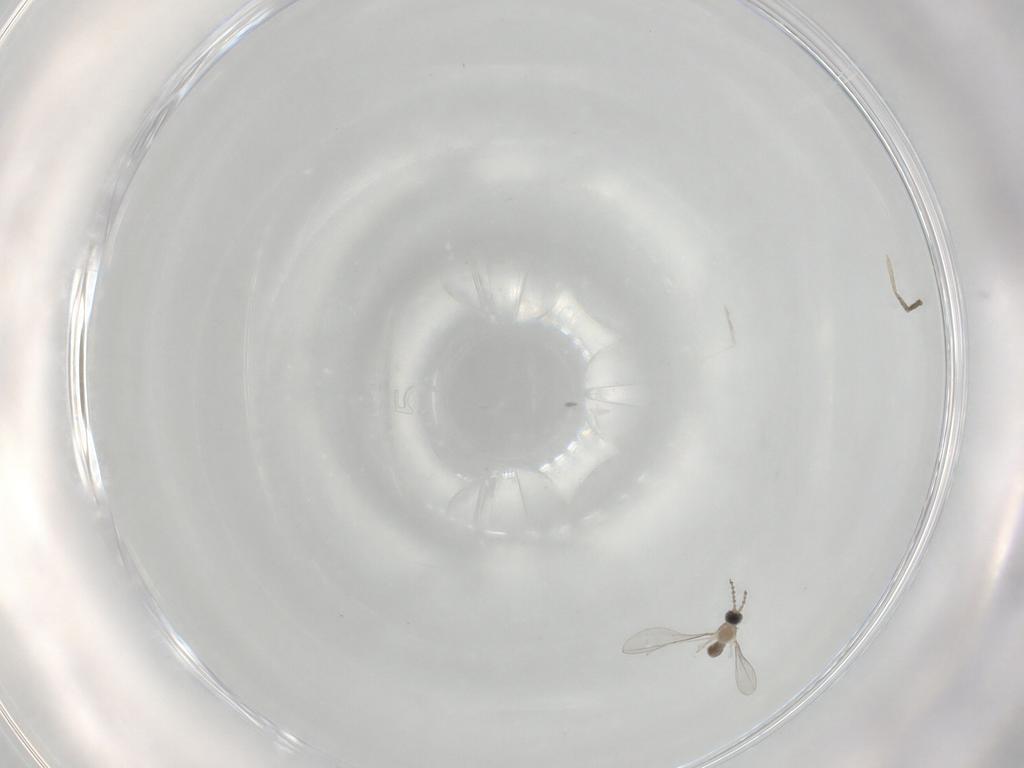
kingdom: Animalia
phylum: Arthropoda
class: Insecta
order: Diptera
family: Cecidomyiidae
